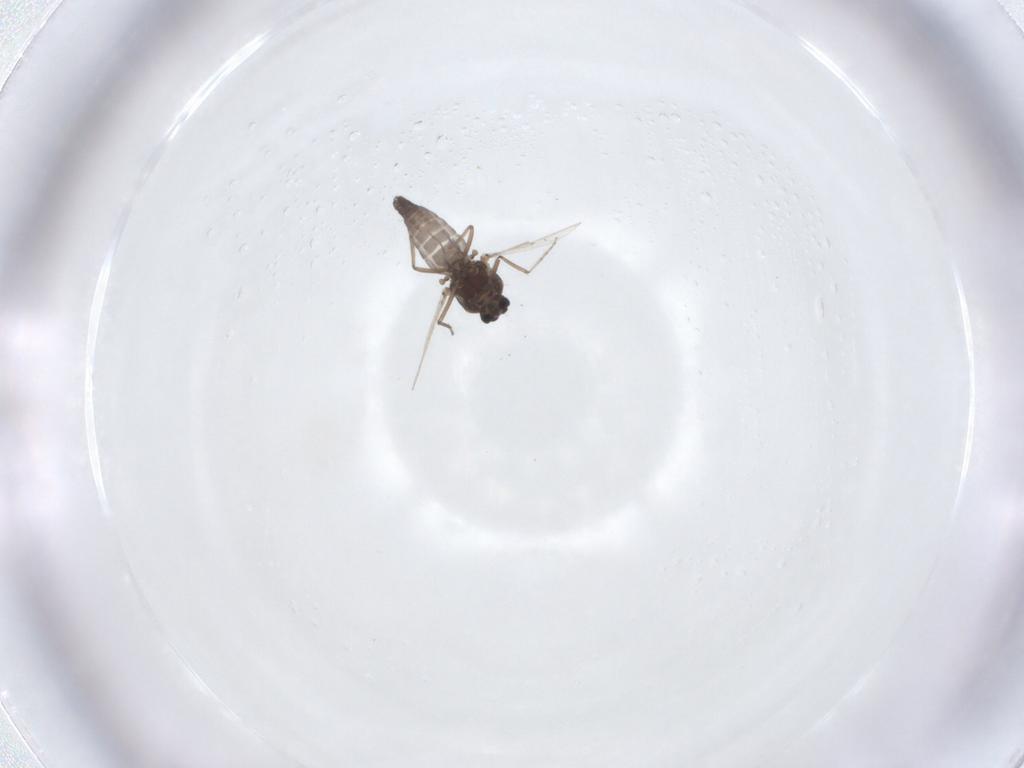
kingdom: Animalia
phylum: Arthropoda
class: Insecta
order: Diptera
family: Ceratopogonidae
